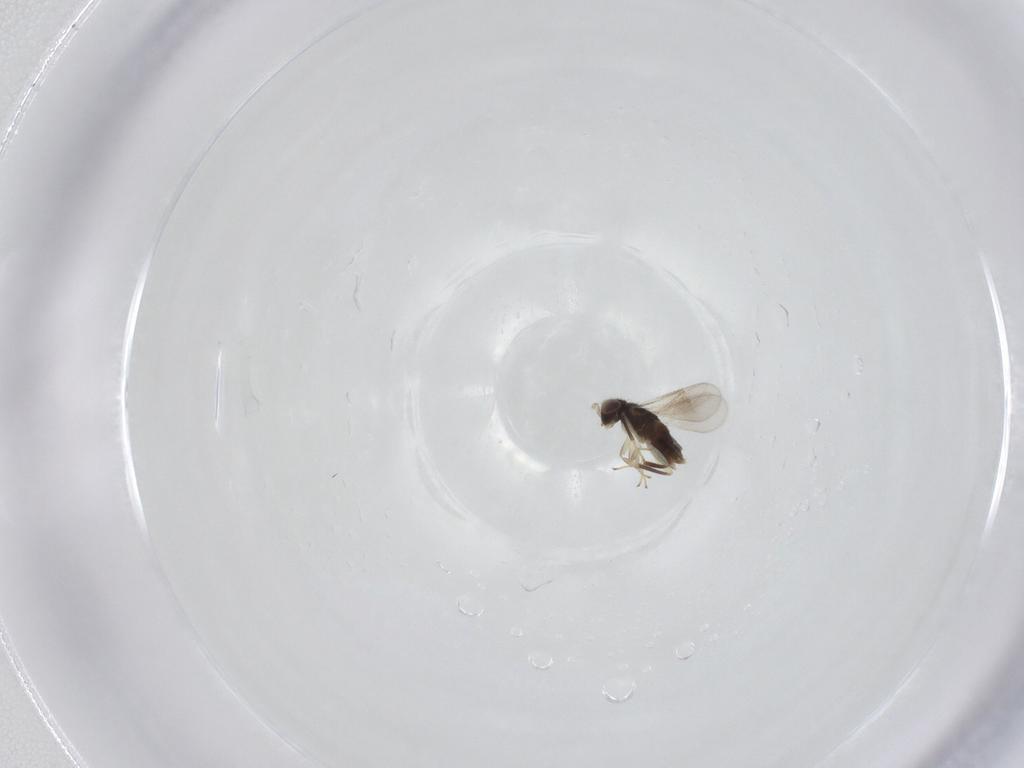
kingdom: Animalia
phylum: Arthropoda
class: Insecta
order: Hymenoptera
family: Aphelinidae
